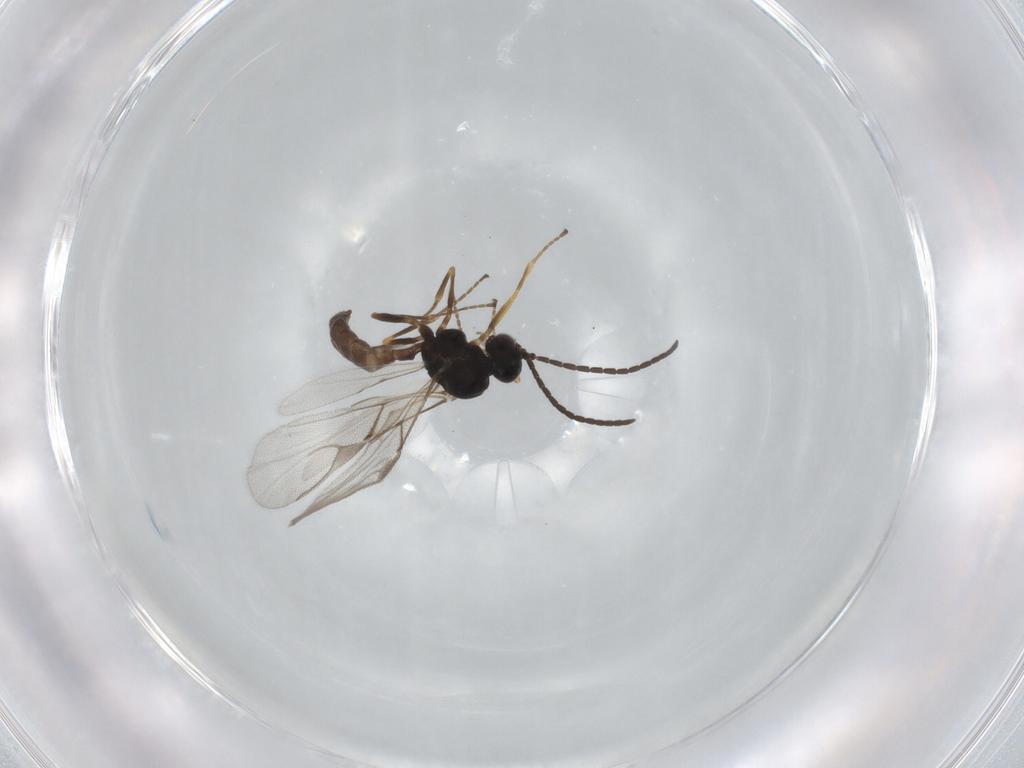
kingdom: Animalia
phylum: Arthropoda
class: Insecta
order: Hymenoptera
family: Braconidae
